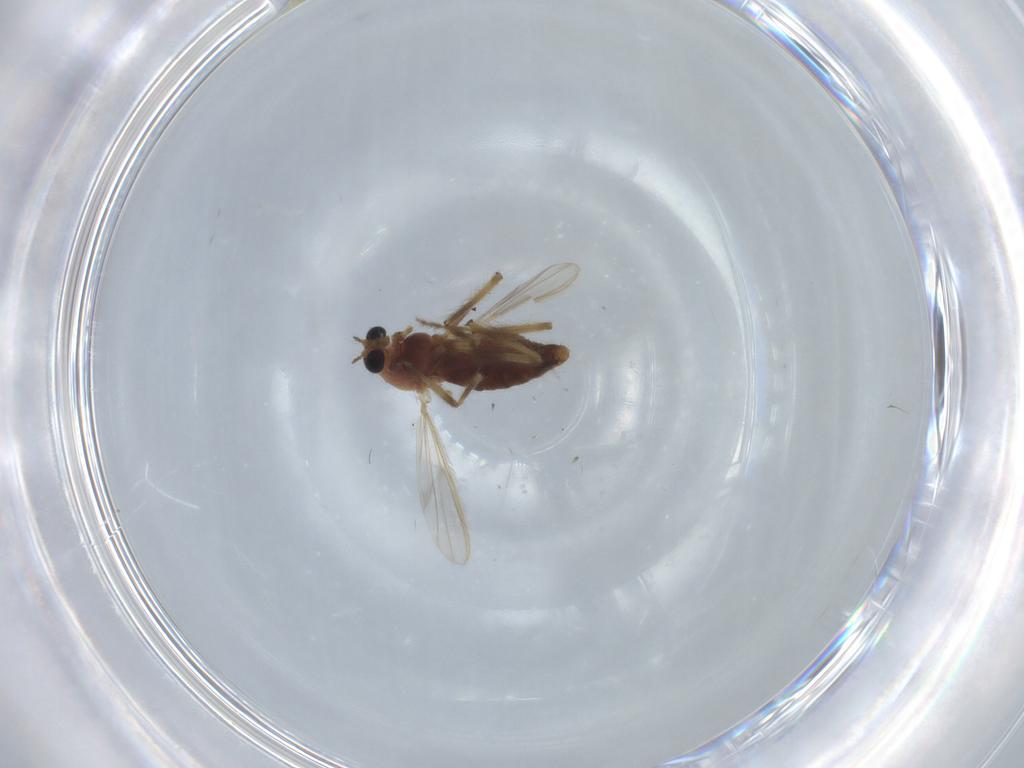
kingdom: Animalia
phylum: Arthropoda
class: Insecta
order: Diptera
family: Chironomidae
